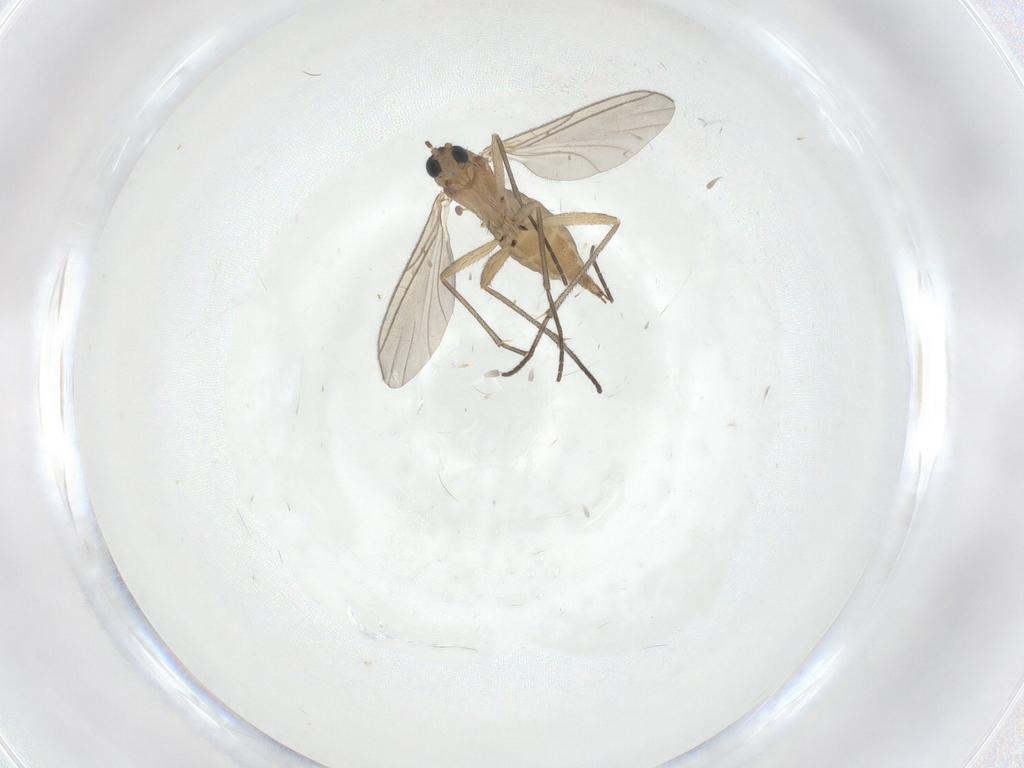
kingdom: Animalia
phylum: Arthropoda
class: Insecta
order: Diptera
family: Sciaridae
